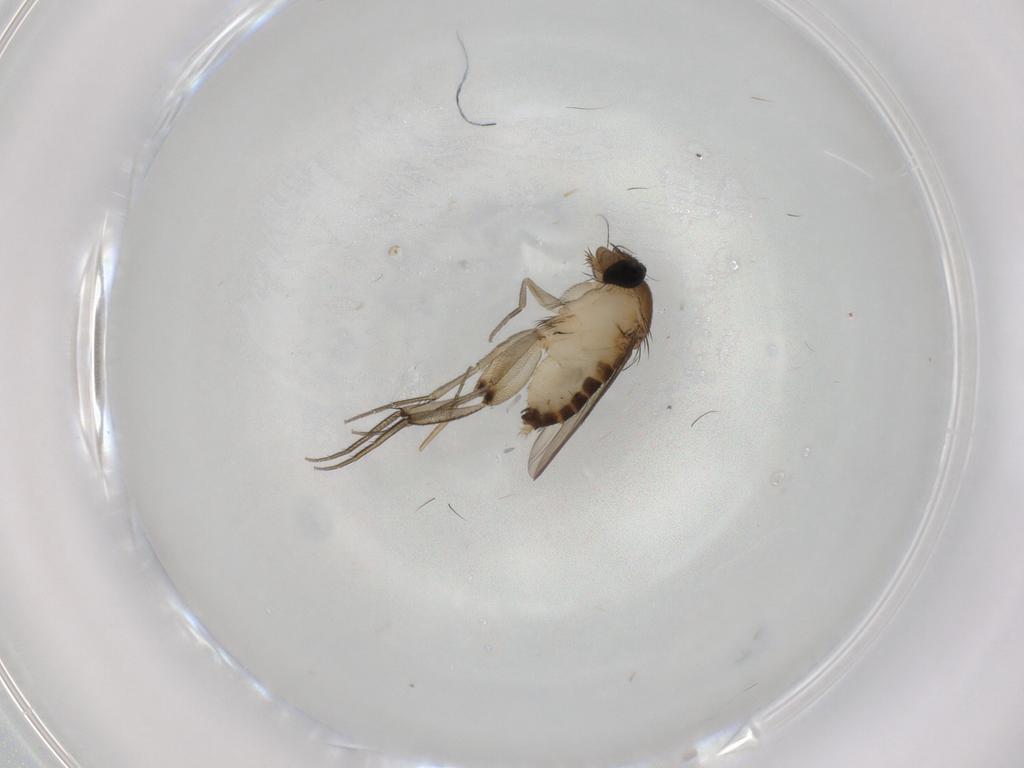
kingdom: Animalia
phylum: Arthropoda
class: Insecta
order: Diptera
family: Phoridae
